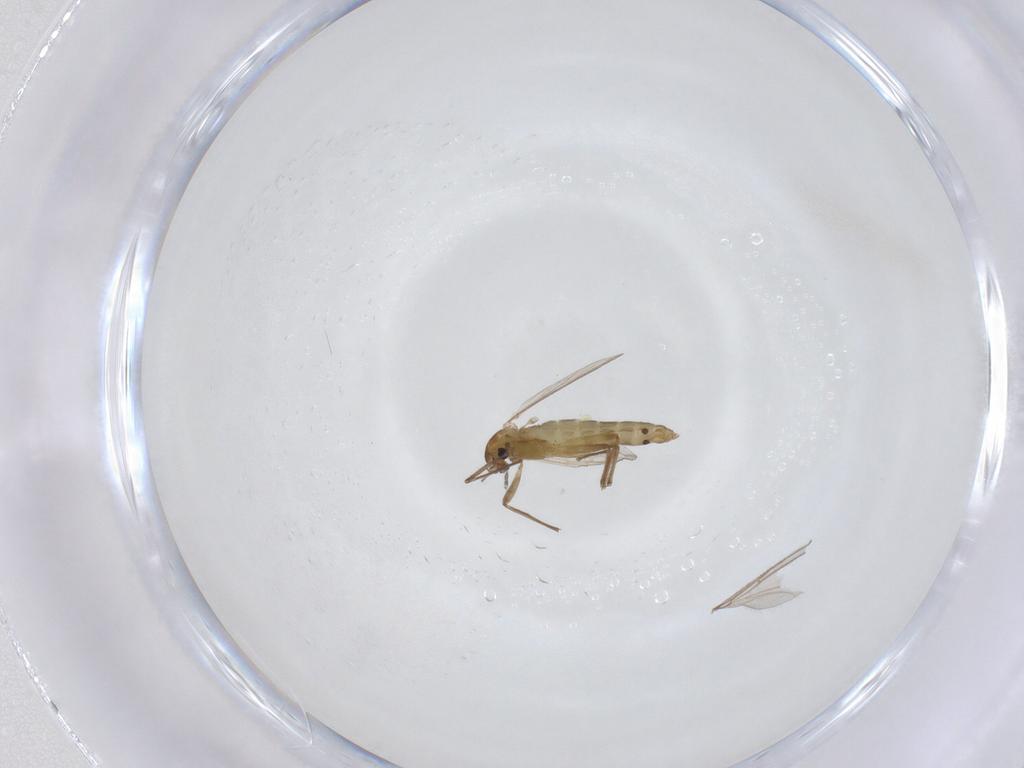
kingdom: Animalia
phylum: Arthropoda
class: Insecta
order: Diptera
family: Chironomidae
